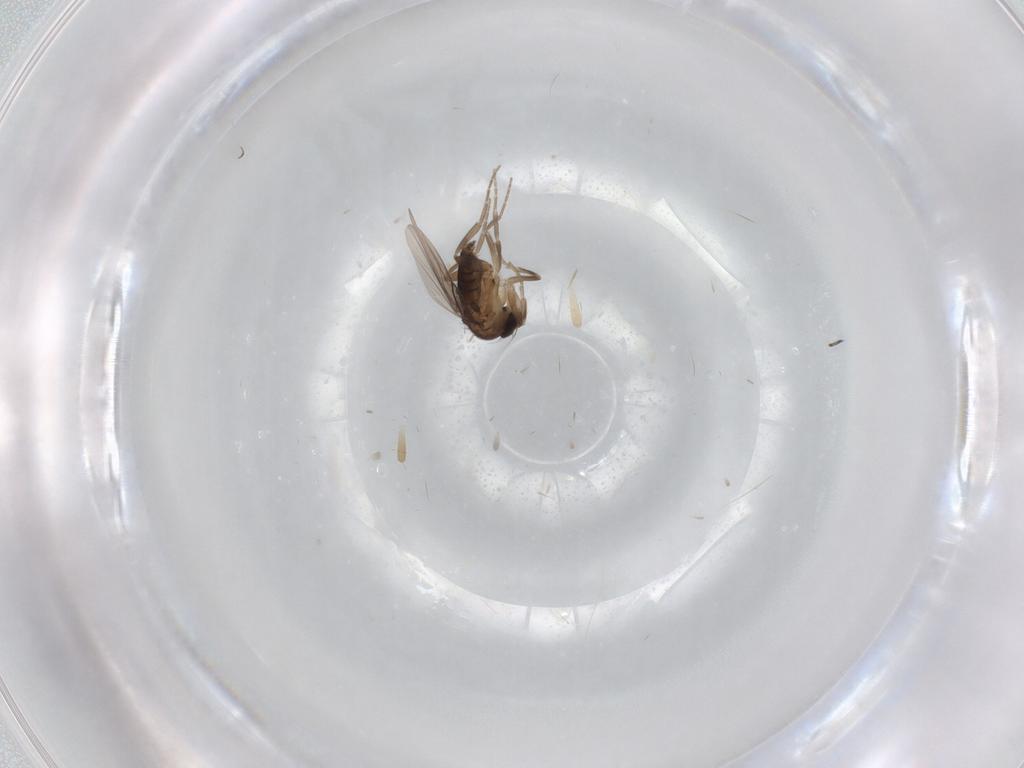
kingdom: Animalia
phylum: Arthropoda
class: Insecta
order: Diptera
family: Phoridae
